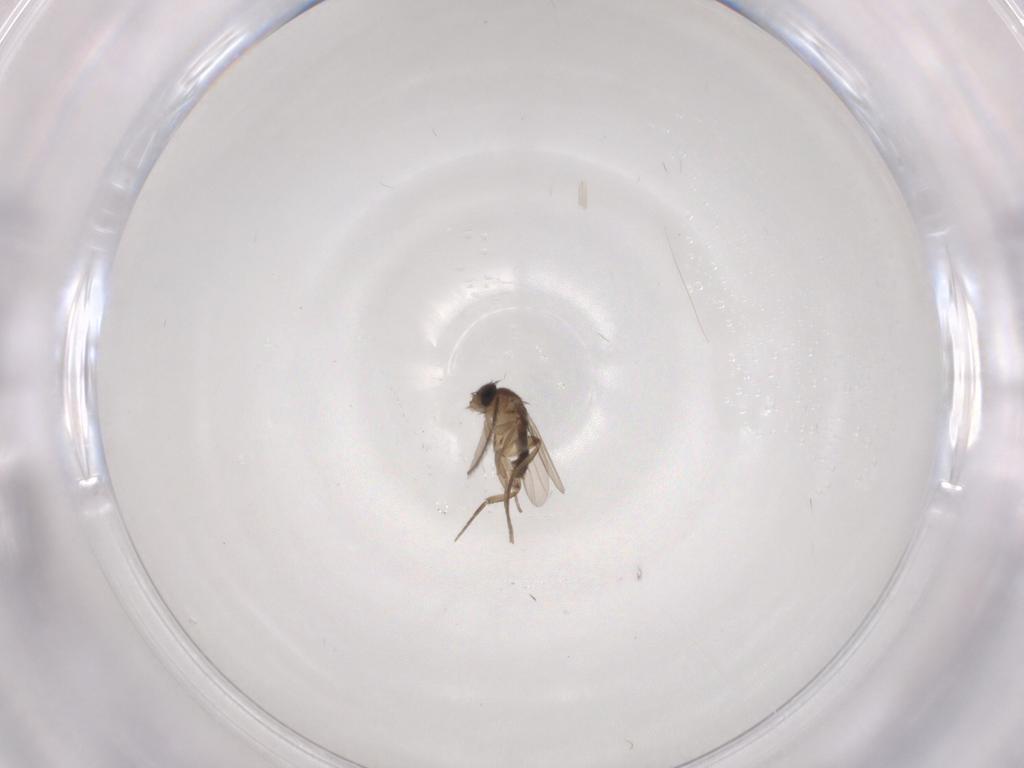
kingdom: Animalia
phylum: Arthropoda
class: Insecta
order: Diptera
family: Phoridae
